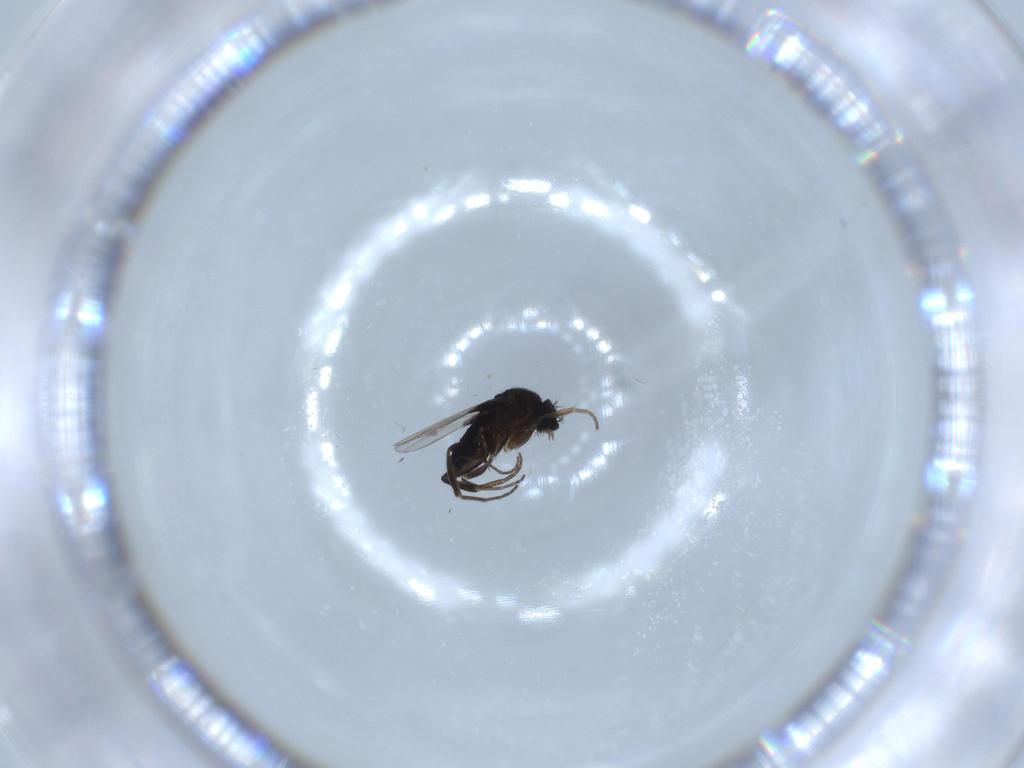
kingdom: Animalia
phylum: Arthropoda
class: Insecta
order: Diptera
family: Phoridae
